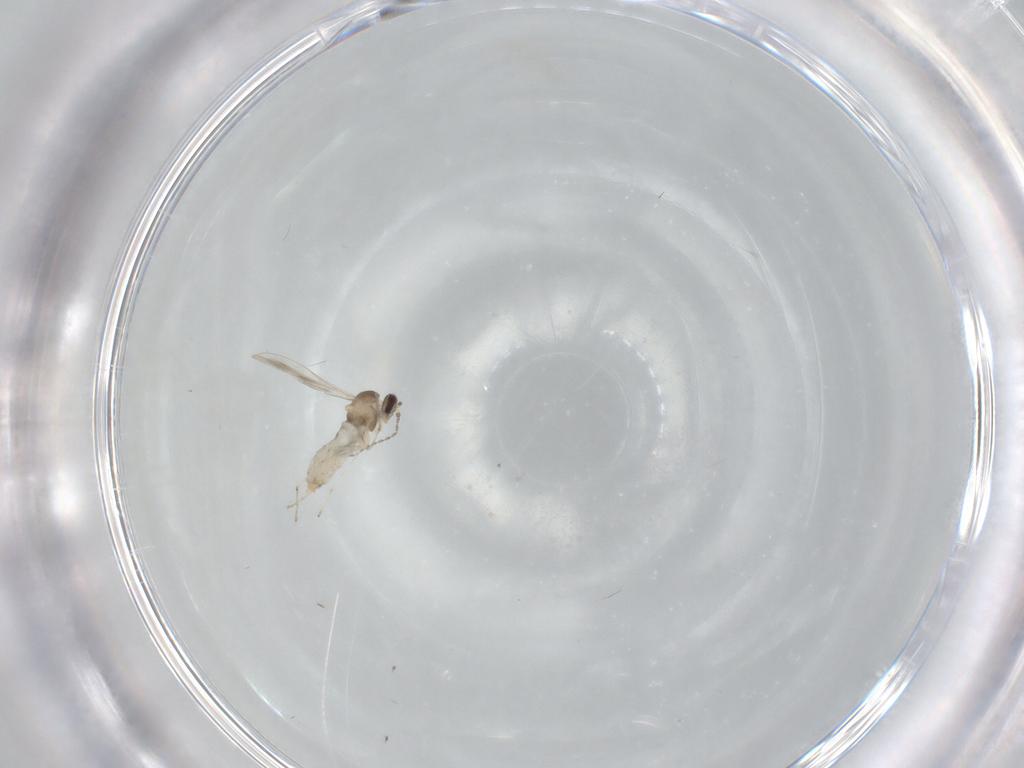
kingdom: Animalia
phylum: Arthropoda
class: Insecta
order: Diptera
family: Cecidomyiidae
